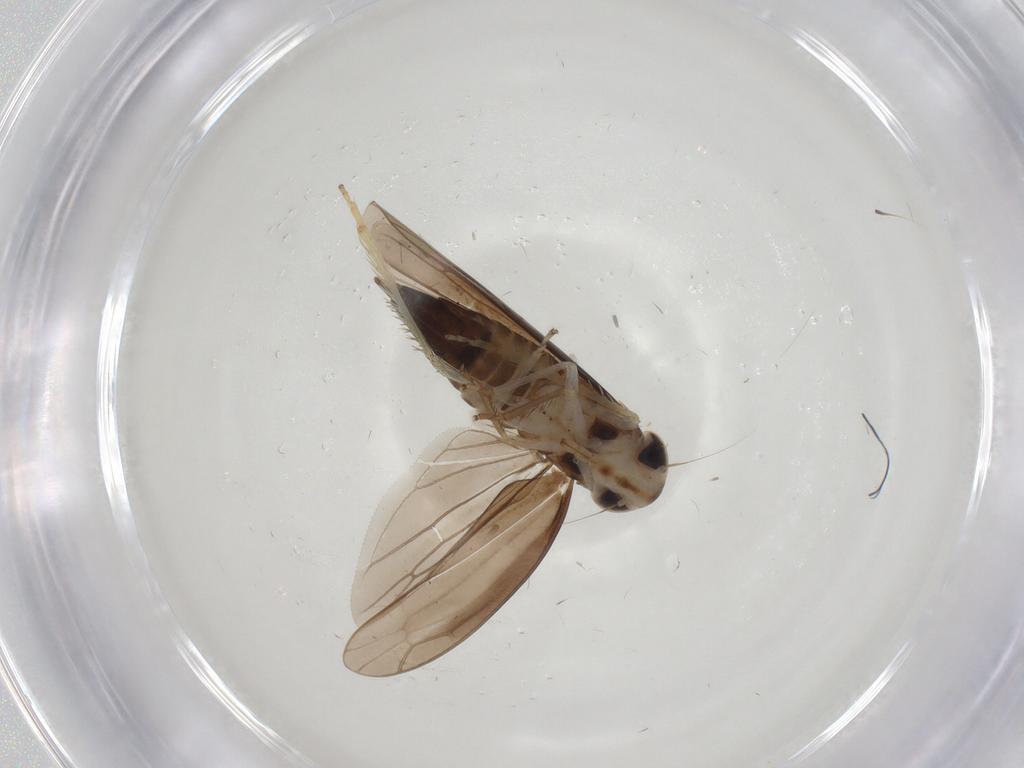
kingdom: Animalia
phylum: Arthropoda
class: Insecta
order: Hemiptera
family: Cicadellidae
